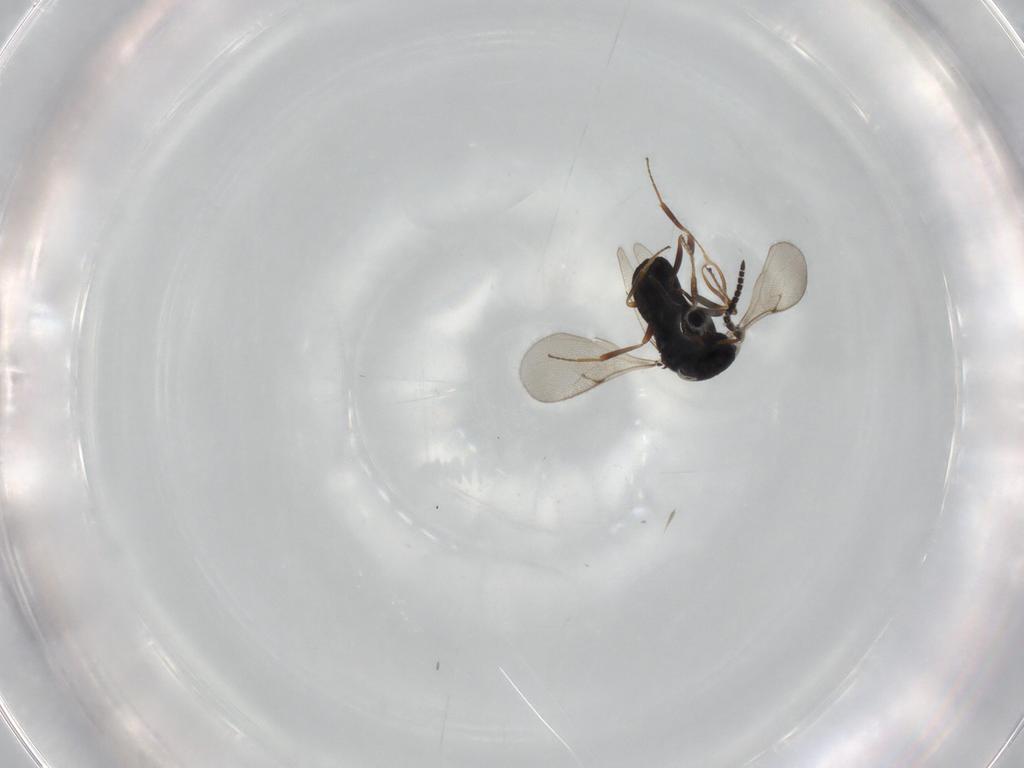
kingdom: Animalia
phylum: Arthropoda
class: Insecta
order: Hymenoptera
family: Scelionidae
